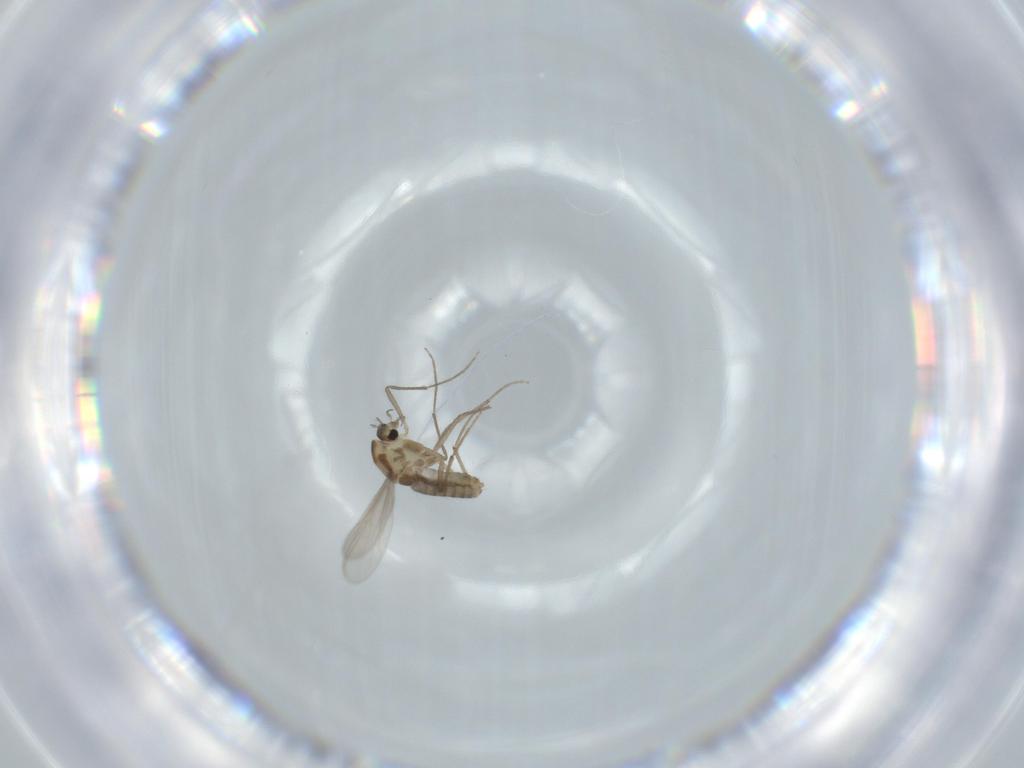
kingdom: Animalia
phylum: Arthropoda
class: Insecta
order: Diptera
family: Chironomidae
